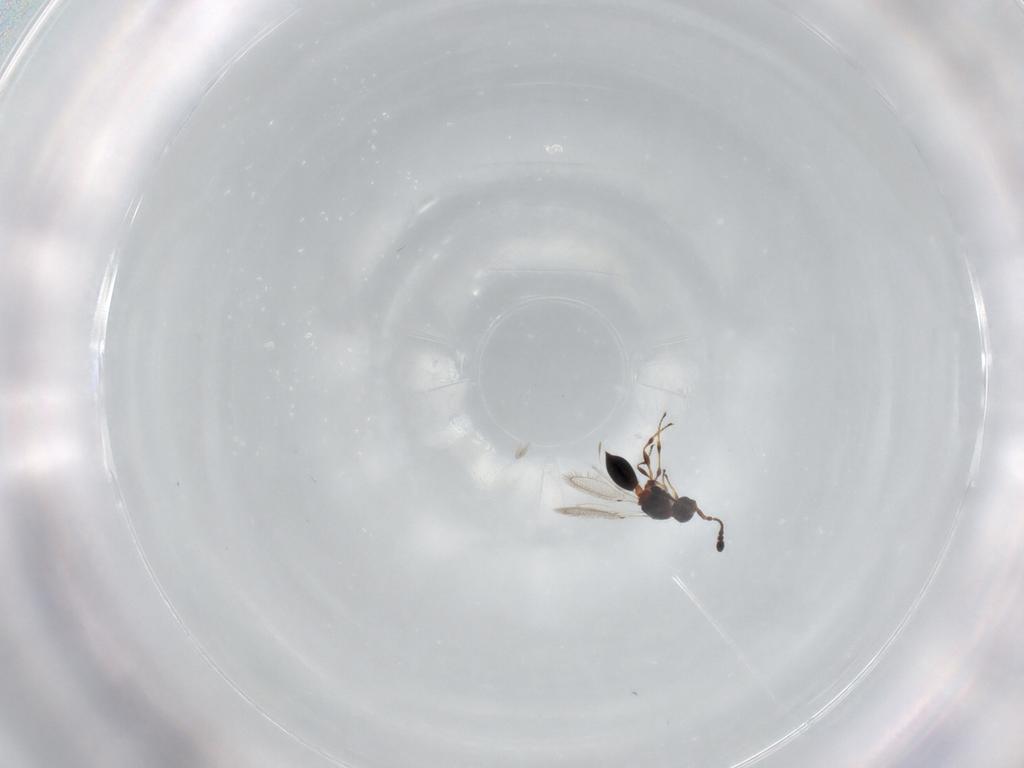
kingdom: Animalia
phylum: Arthropoda
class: Insecta
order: Hymenoptera
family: Diapriidae
